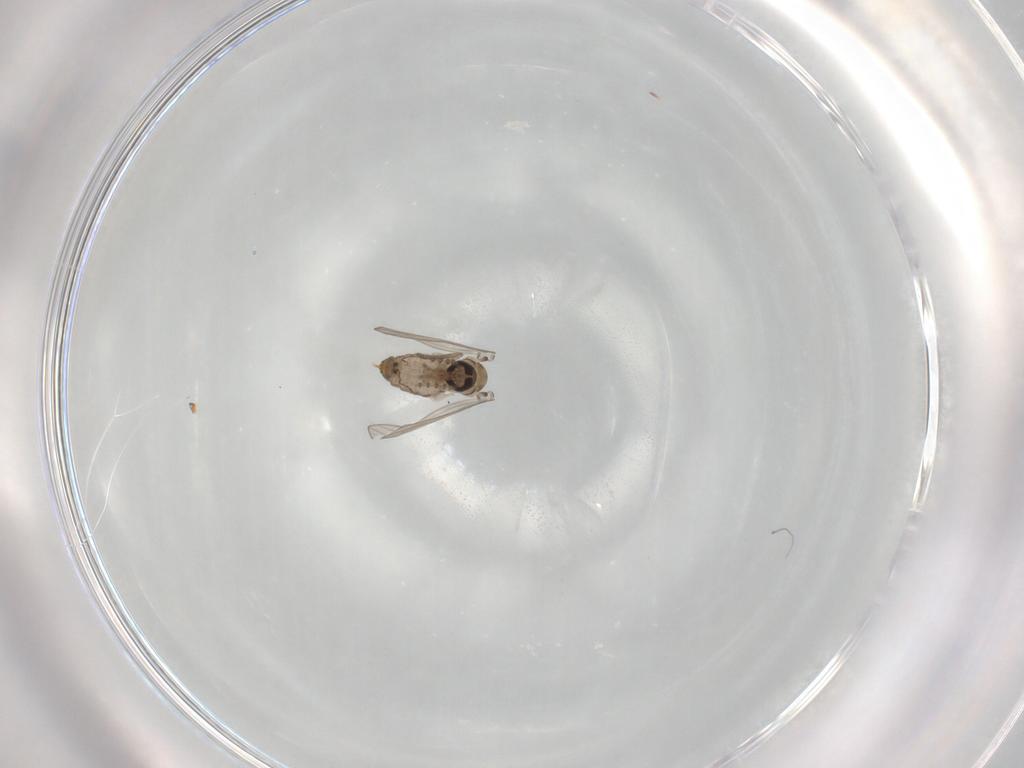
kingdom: Animalia
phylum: Arthropoda
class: Insecta
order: Diptera
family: Psychodidae
